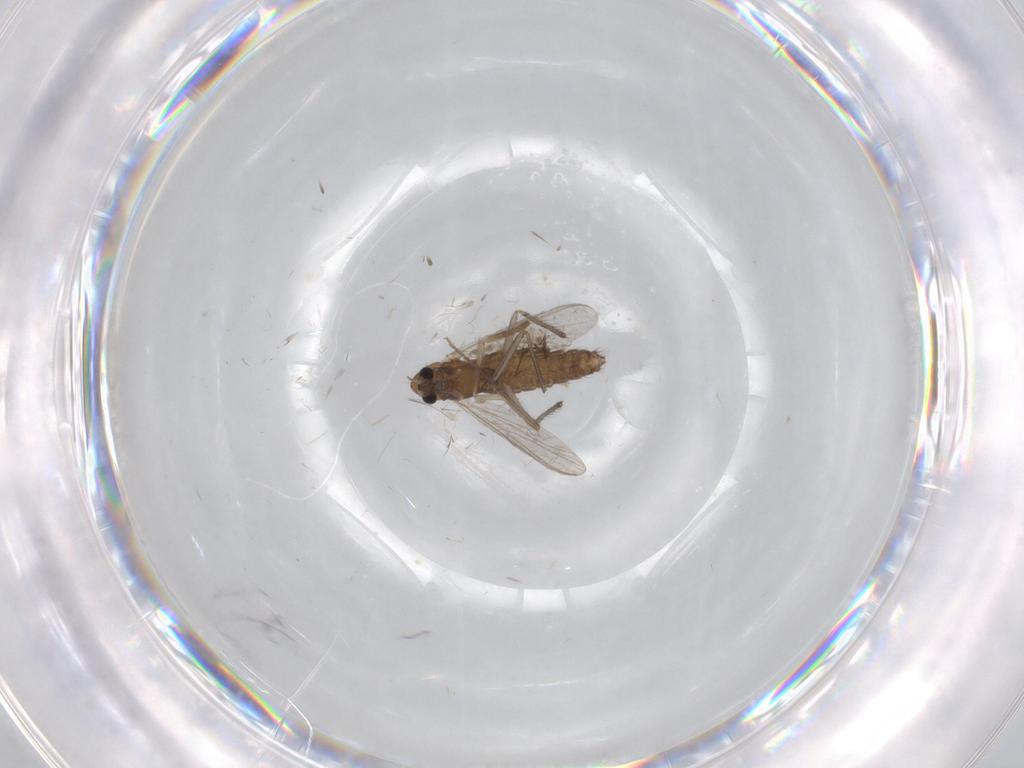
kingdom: Animalia
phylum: Arthropoda
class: Insecta
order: Diptera
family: Chironomidae
